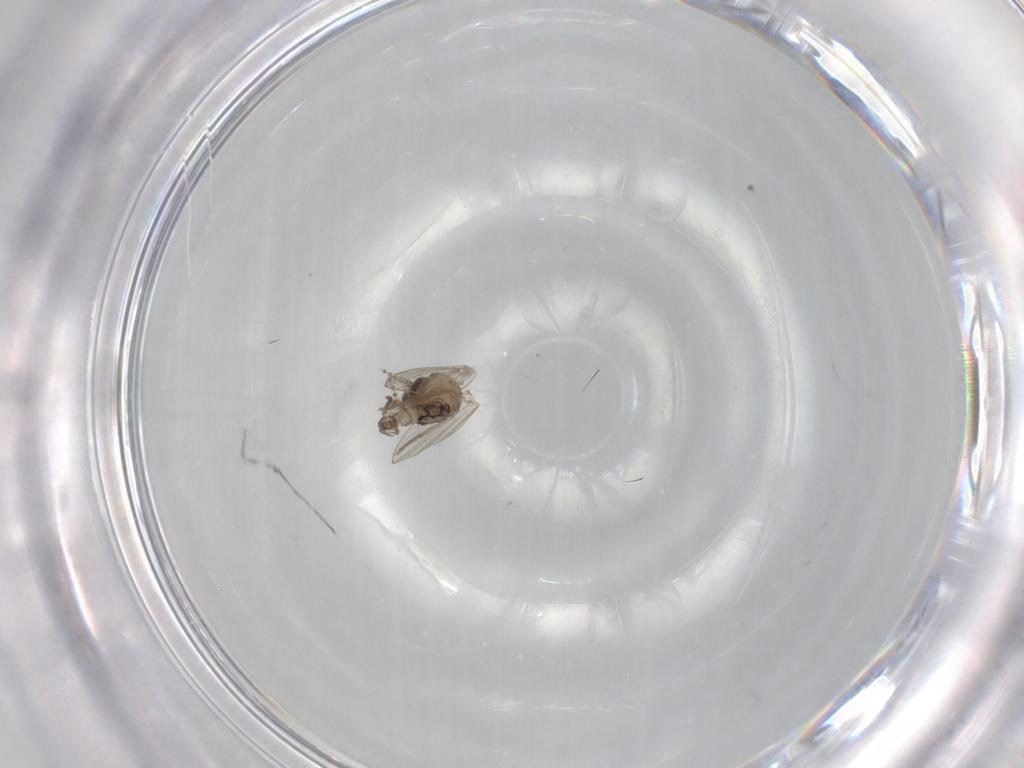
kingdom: Animalia
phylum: Arthropoda
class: Insecta
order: Diptera
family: Psychodidae
